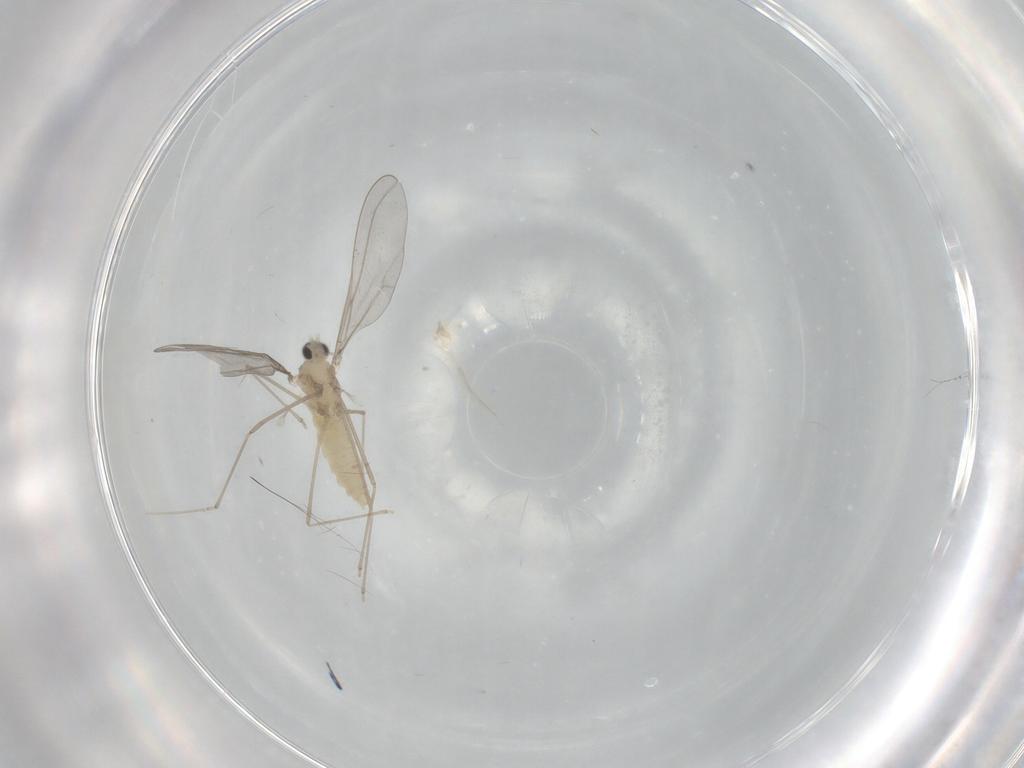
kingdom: Animalia
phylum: Arthropoda
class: Insecta
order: Diptera
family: Cecidomyiidae
